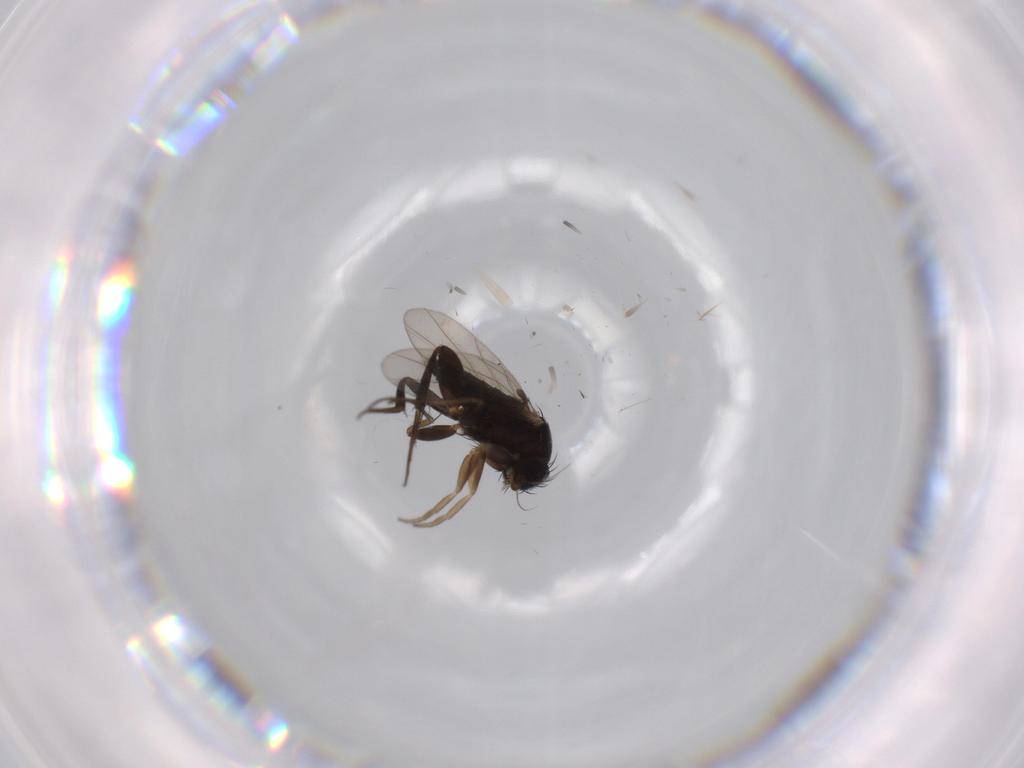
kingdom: Animalia
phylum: Arthropoda
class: Insecta
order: Diptera
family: Phoridae
